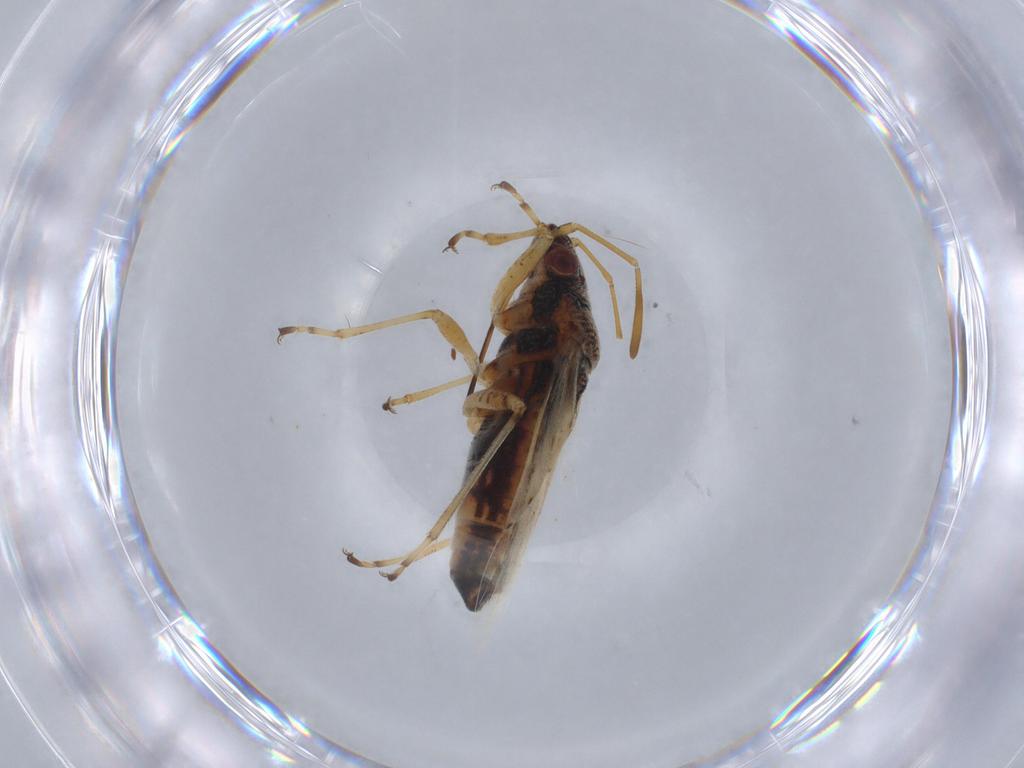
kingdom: Animalia
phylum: Arthropoda
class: Insecta
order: Hemiptera
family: Lygaeidae
